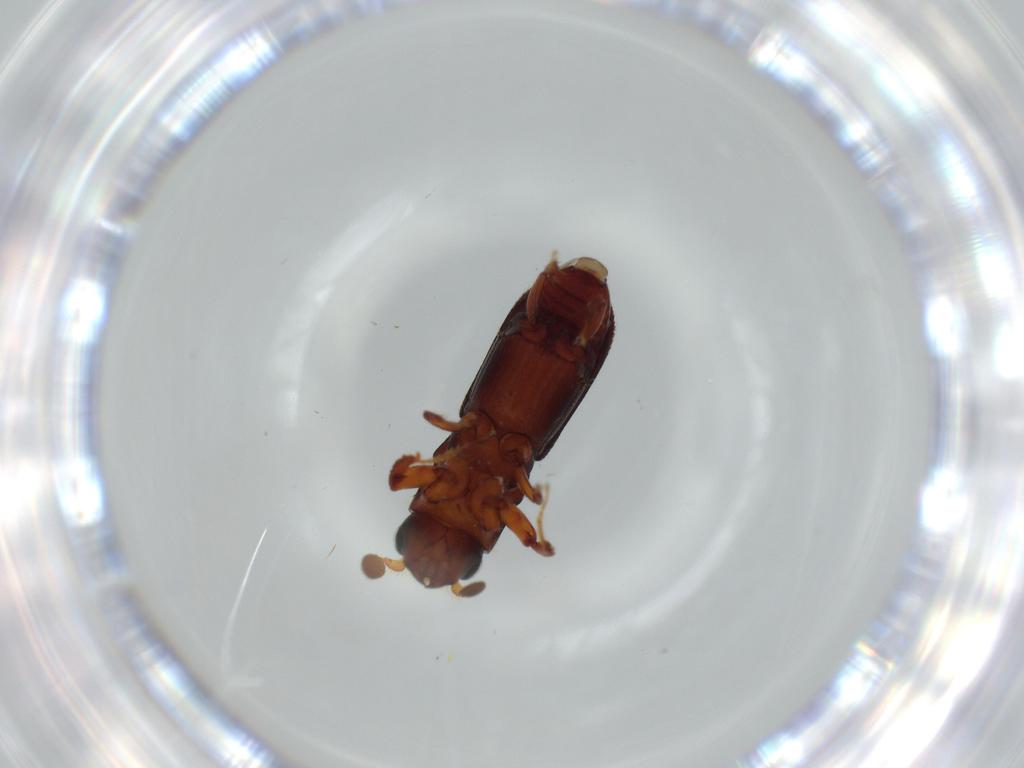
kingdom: Animalia
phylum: Arthropoda
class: Insecta
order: Coleoptera
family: Curculionidae
